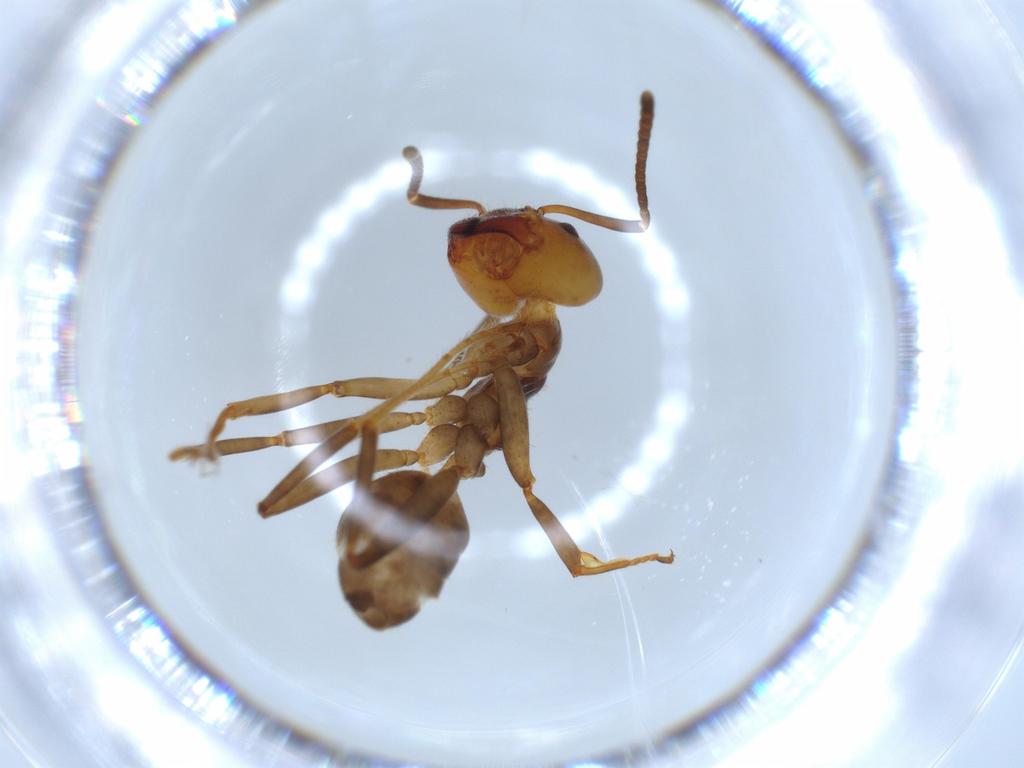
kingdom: Animalia
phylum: Arthropoda
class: Insecta
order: Hymenoptera
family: Formicidae
